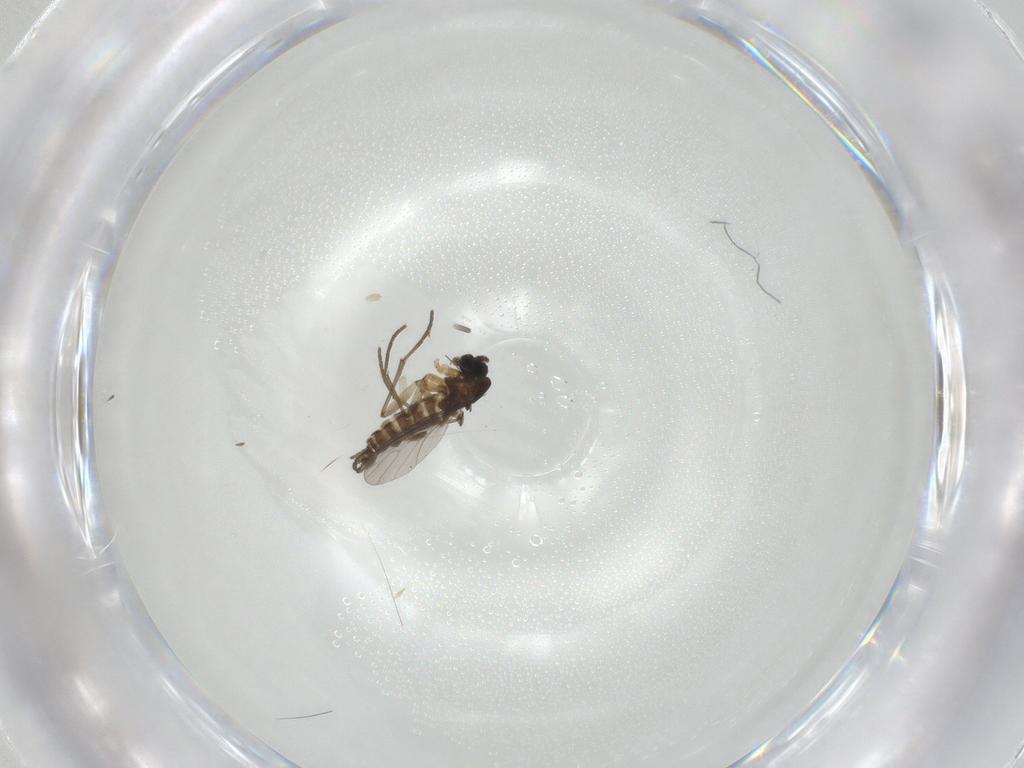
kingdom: Animalia
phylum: Arthropoda
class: Insecta
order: Diptera
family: Sciaridae
